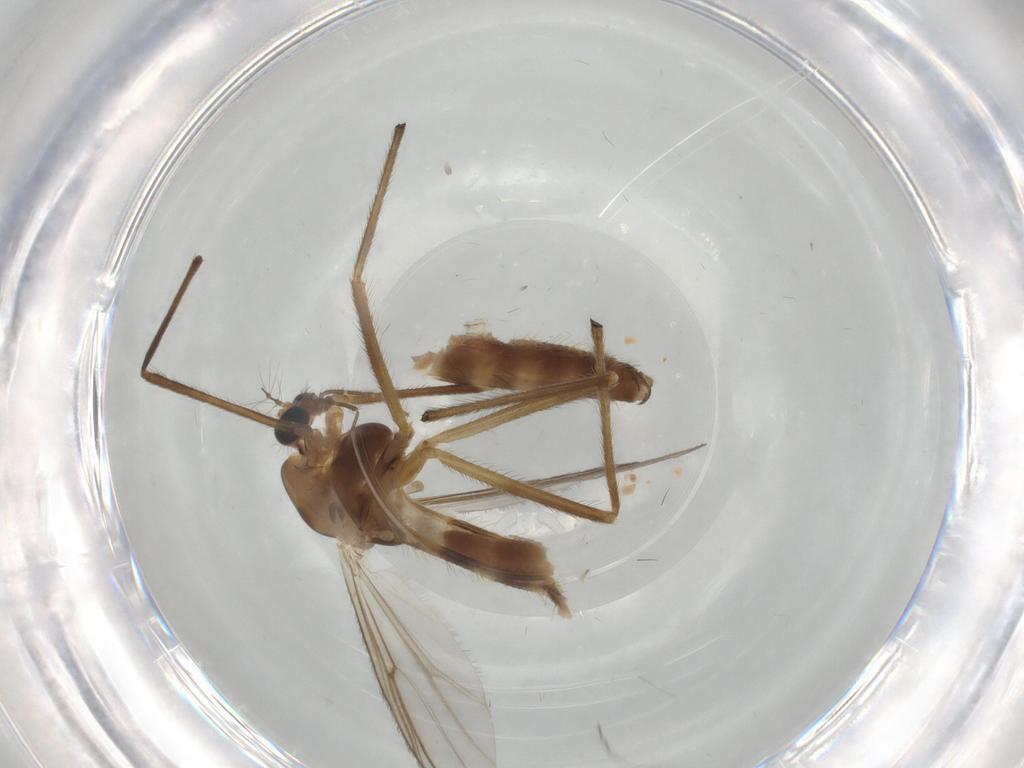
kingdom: Animalia
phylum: Arthropoda
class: Insecta
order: Diptera
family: Chironomidae
